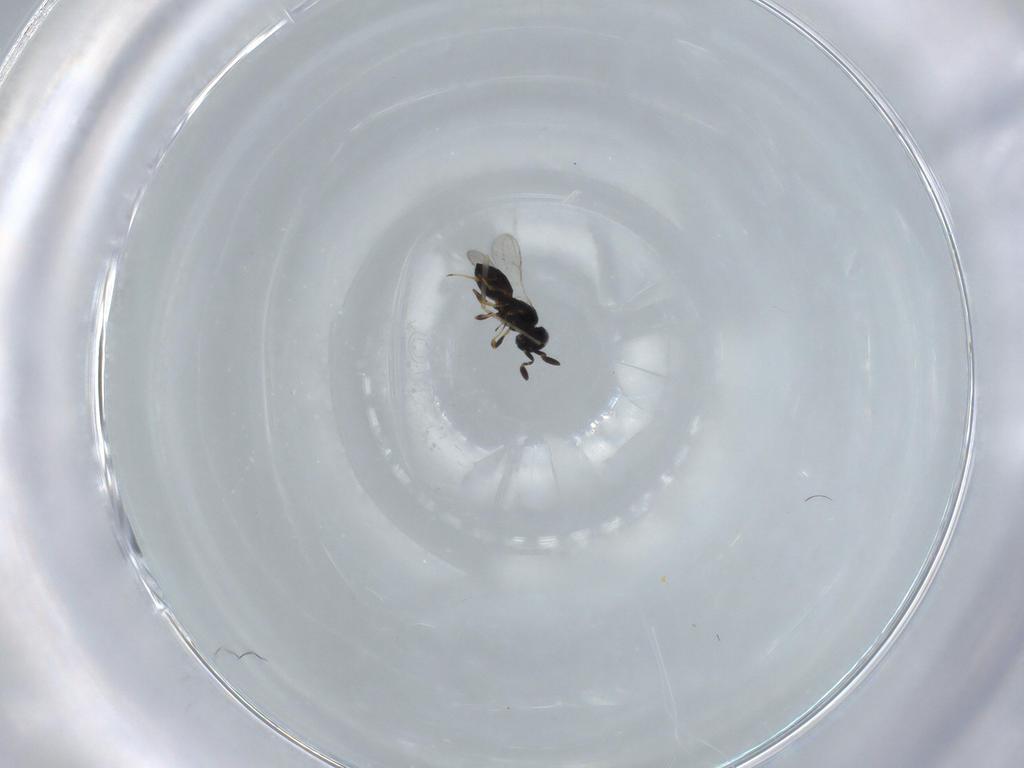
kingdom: Animalia
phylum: Arthropoda
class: Insecta
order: Hymenoptera
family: Platygastridae
